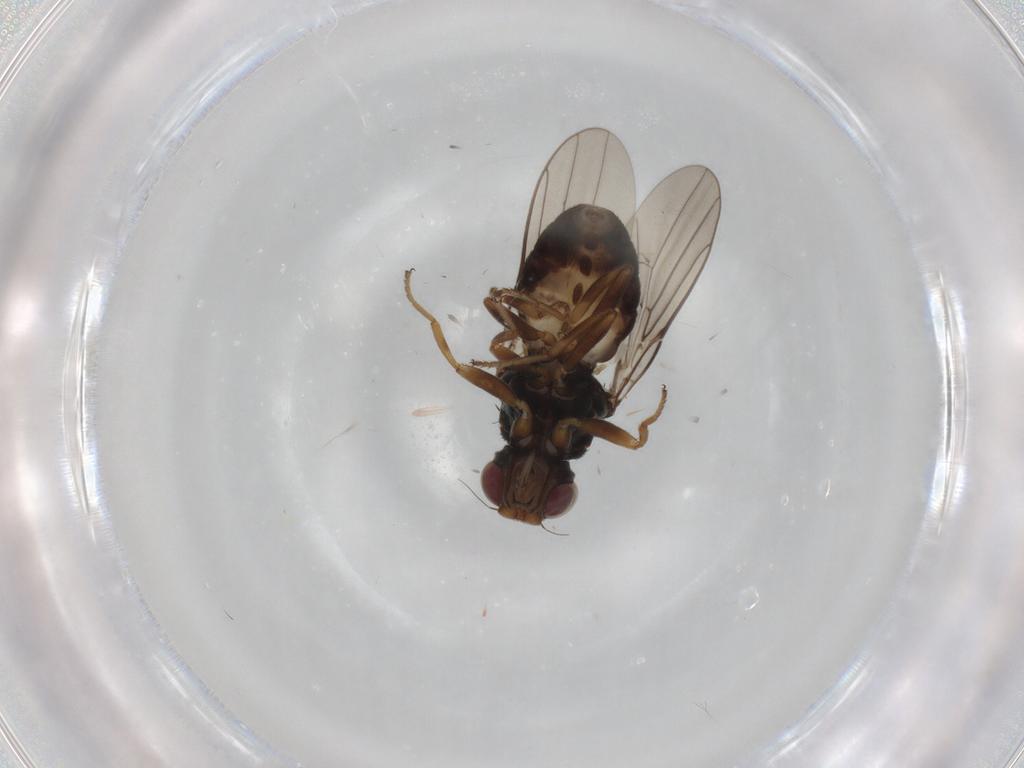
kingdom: Animalia
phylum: Arthropoda
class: Insecta
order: Diptera
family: Chloropidae
